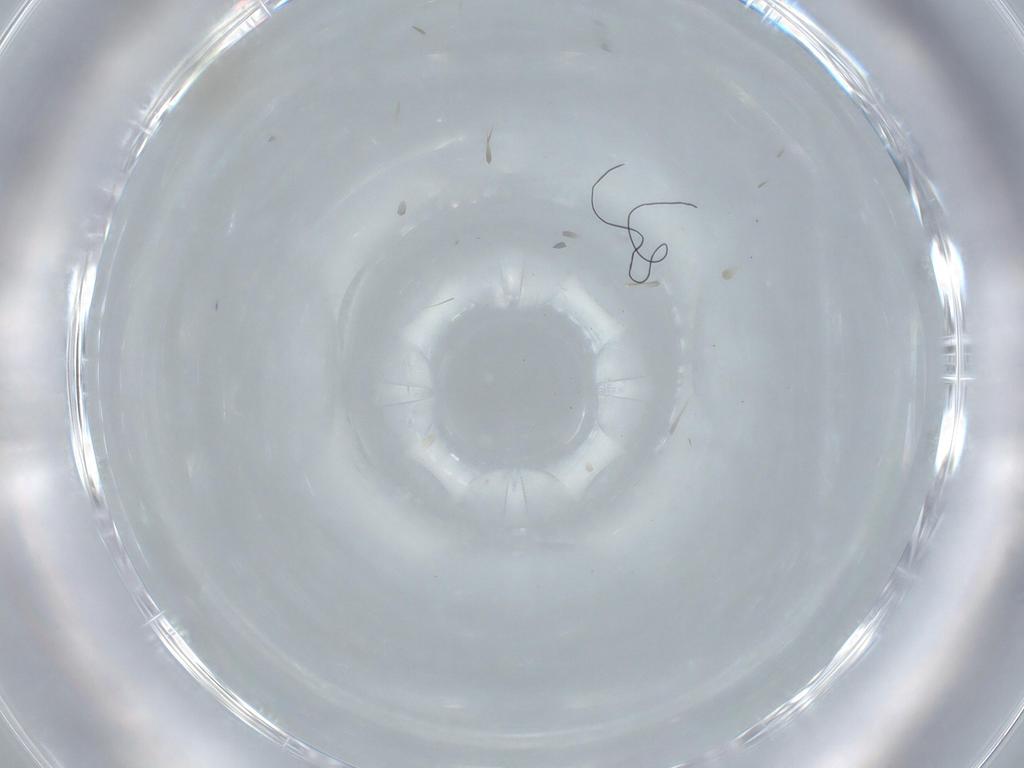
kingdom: Animalia
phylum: Arthropoda
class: Insecta
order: Diptera
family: Cecidomyiidae
